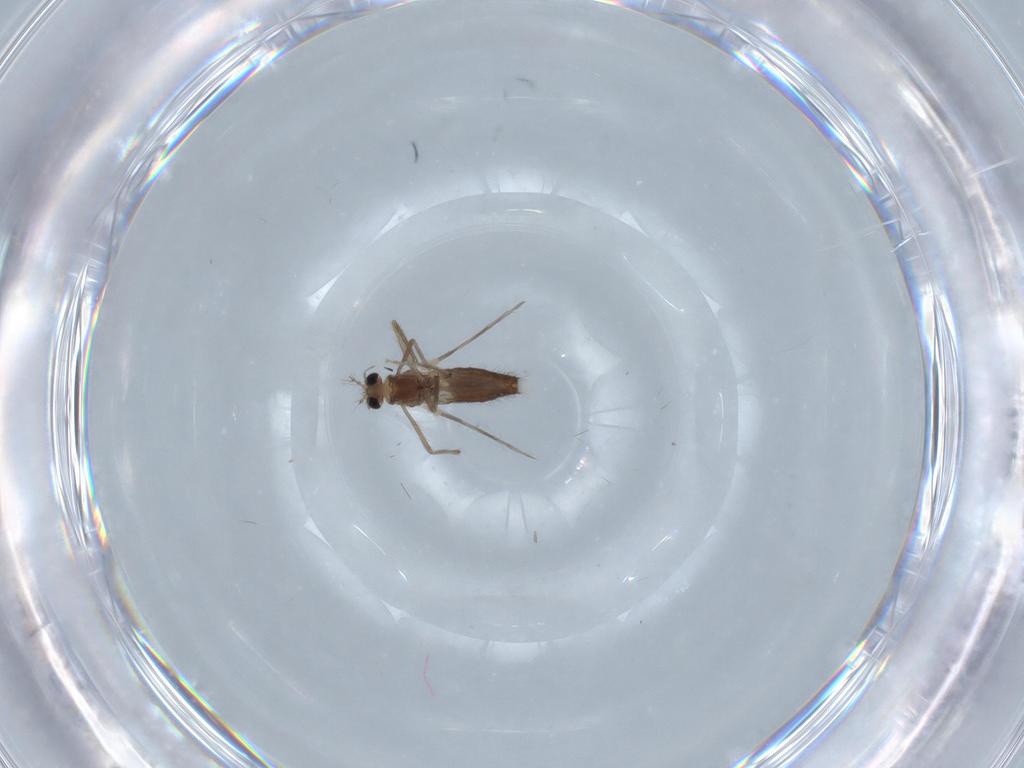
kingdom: Animalia
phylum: Arthropoda
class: Insecta
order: Diptera
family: Chironomidae
